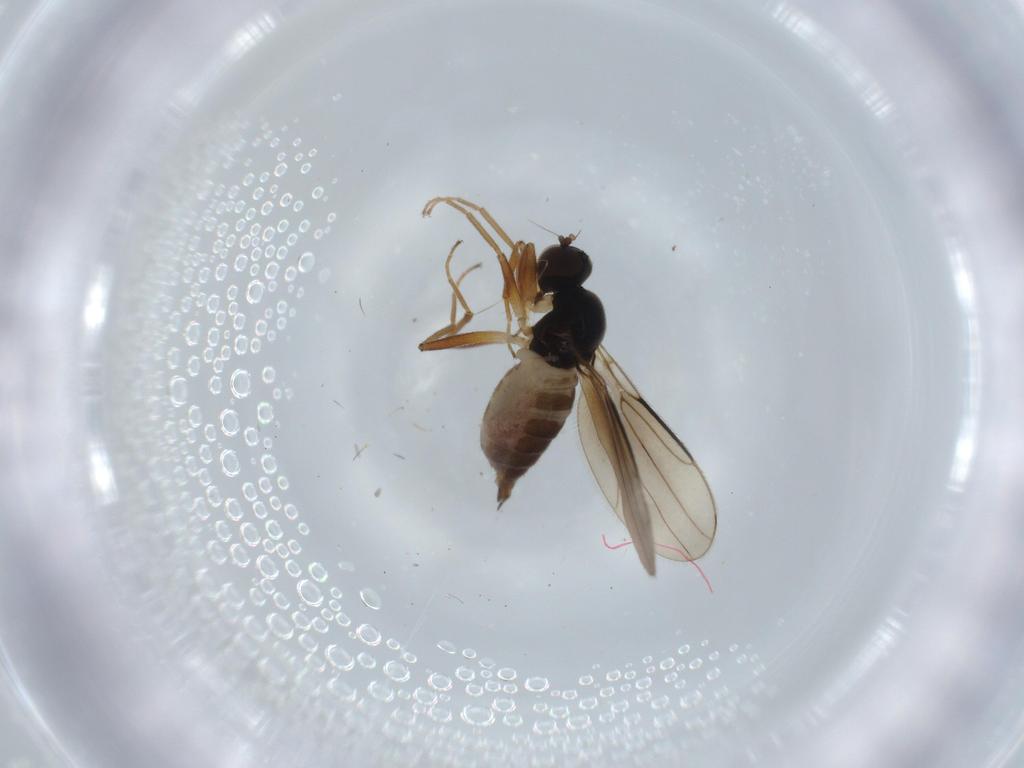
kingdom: Animalia
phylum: Arthropoda
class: Insecta
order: Diptera
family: Hybotidae
